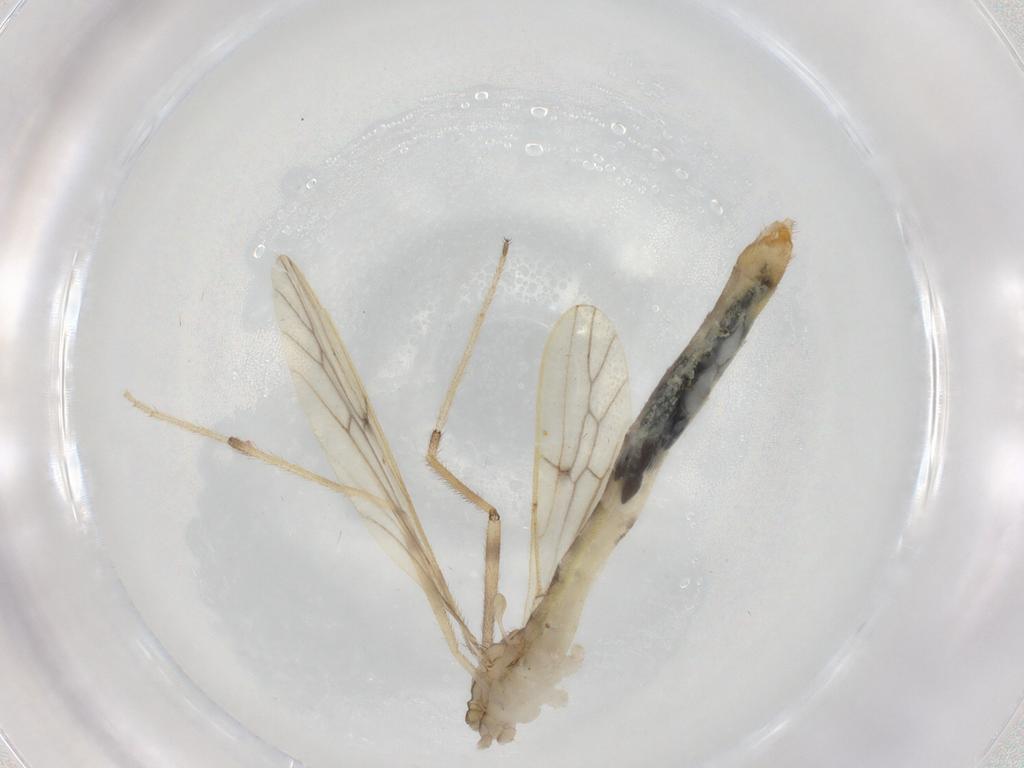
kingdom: Animalia
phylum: Arthropoda
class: Insecta
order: Diptera
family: Limoniidae
